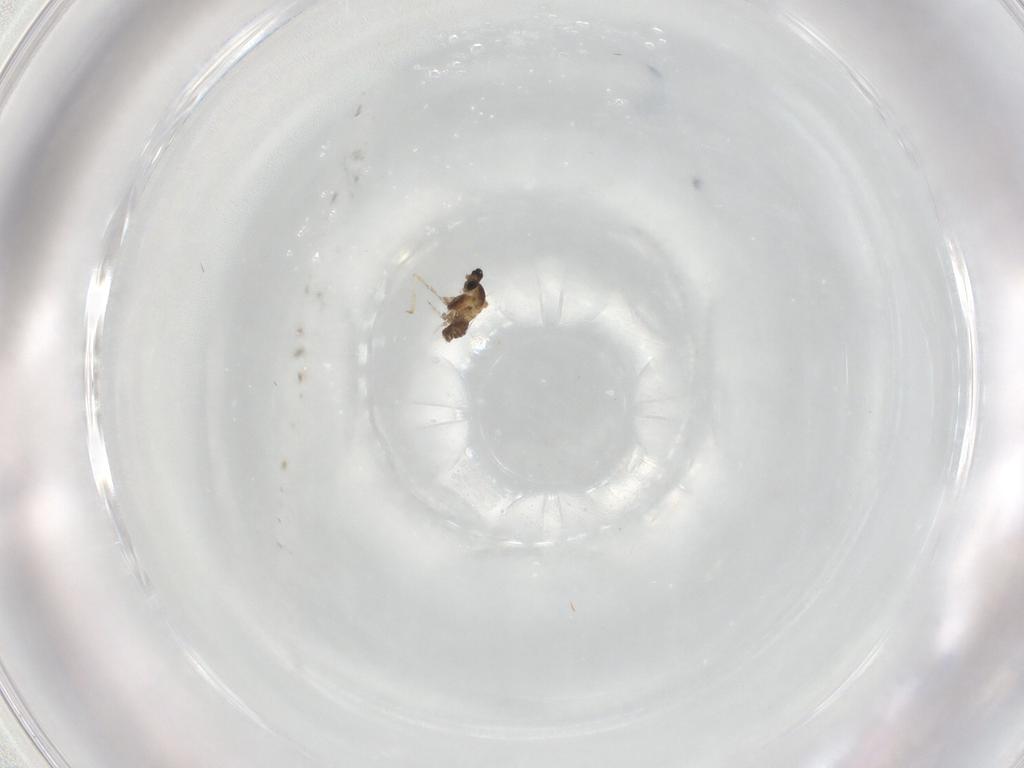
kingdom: Animalia
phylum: Arthropoda
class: Insecta
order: Diptera
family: Cecidomyiidae
